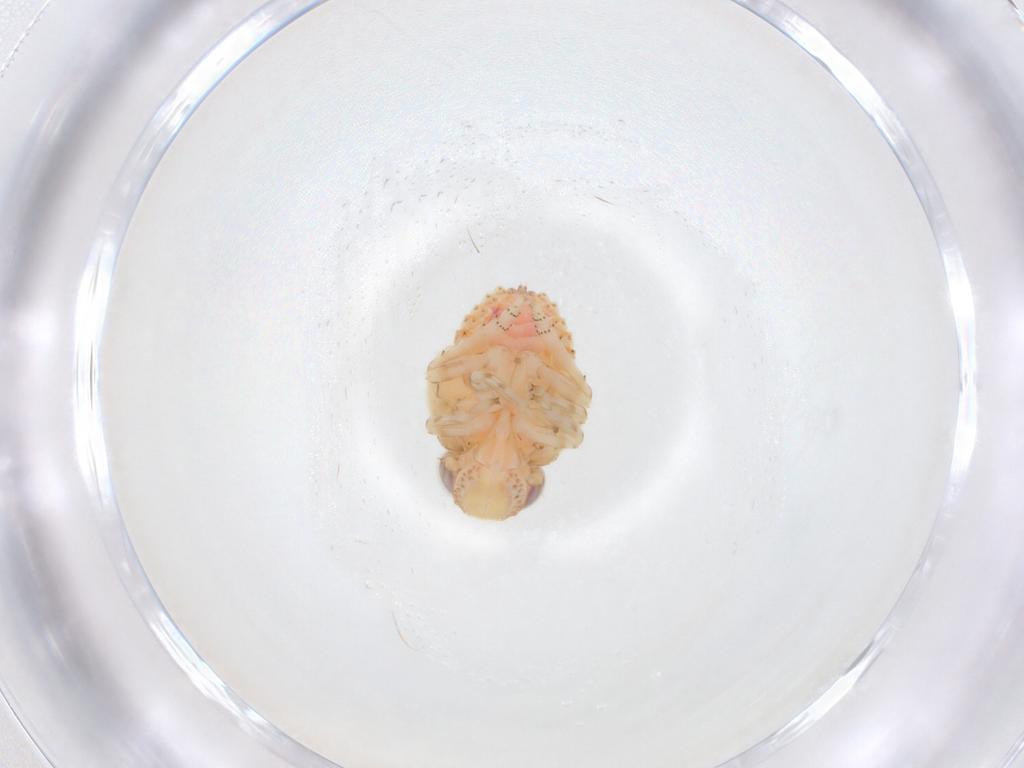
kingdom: Animalia
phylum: Arthropoda
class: Insecta
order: Hemiptera
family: Issidae
